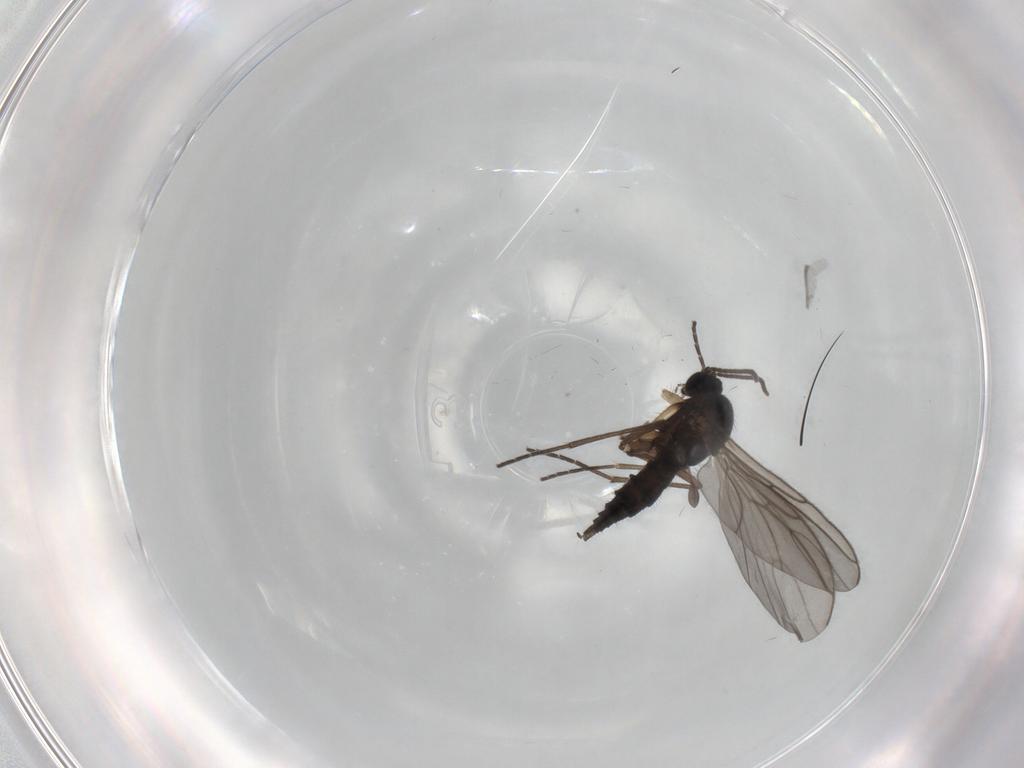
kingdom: Animalia
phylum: Arthropoda
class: Insecta
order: Diptera
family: Sciaridae
